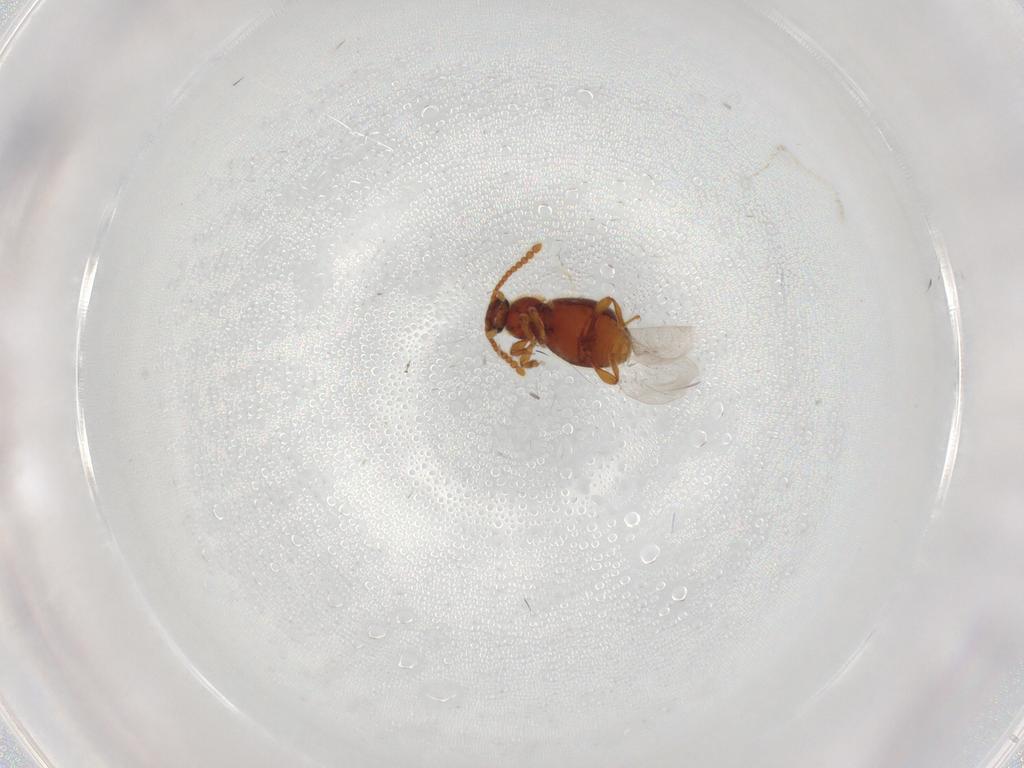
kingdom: Animalia
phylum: Arthropoda
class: Insecta
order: Coleoptera
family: Staphylinidae
